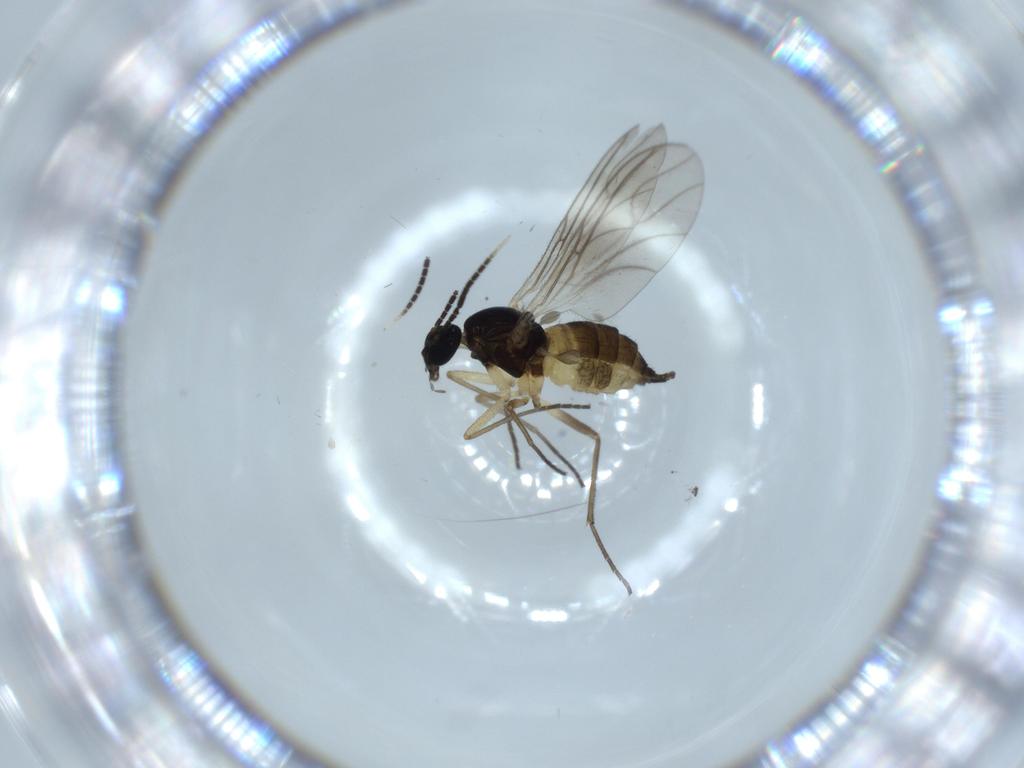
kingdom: Animalia
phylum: Arthropoda
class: Insecta
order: Diptera
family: Sciaridae
